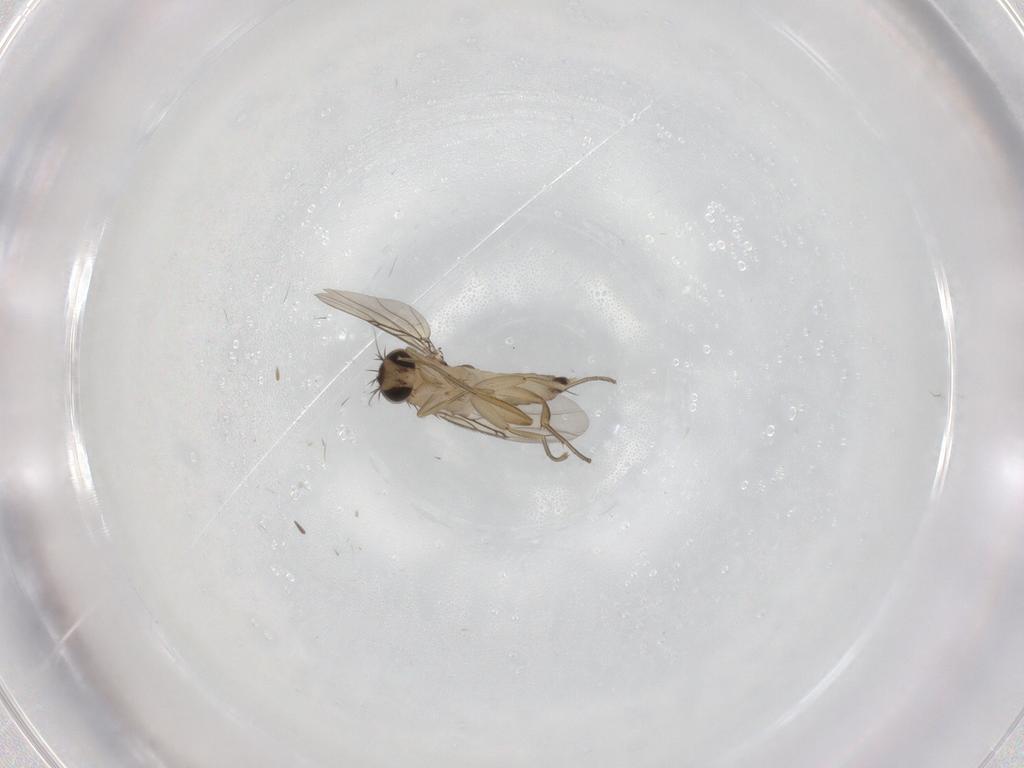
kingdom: Animalia
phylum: Arthropoda
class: Insecta
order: Diptera
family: Phoridae
